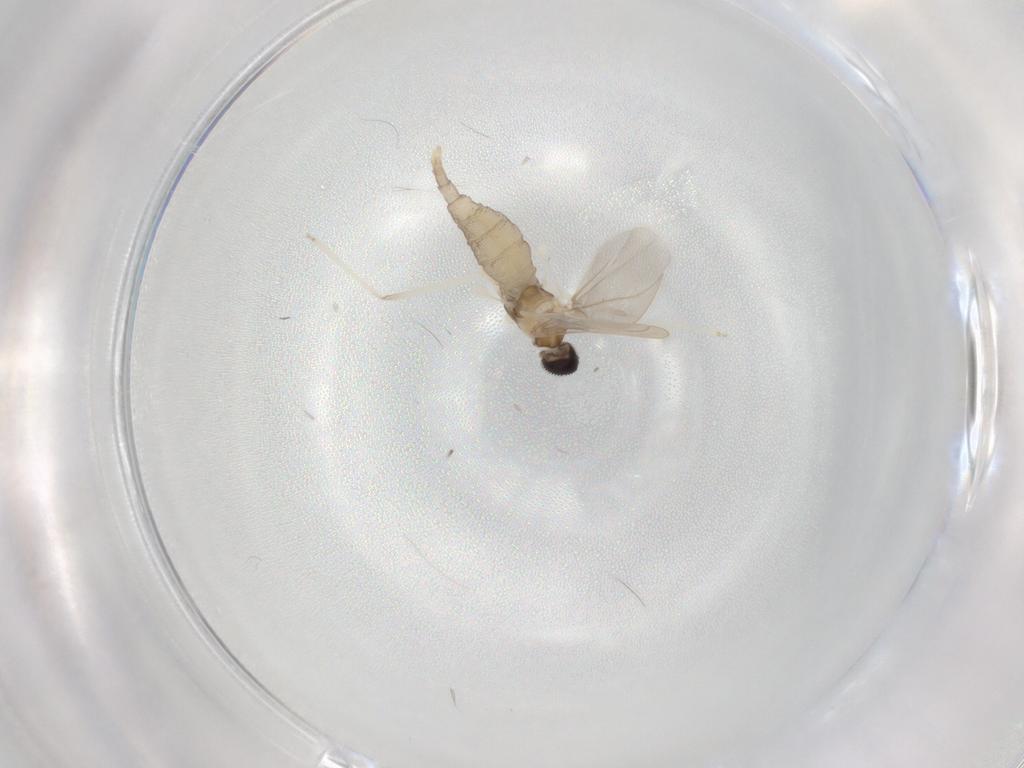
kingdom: Animalia
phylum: Arthropoda
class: Insecta
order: Diptera
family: Cecidomyiidae
